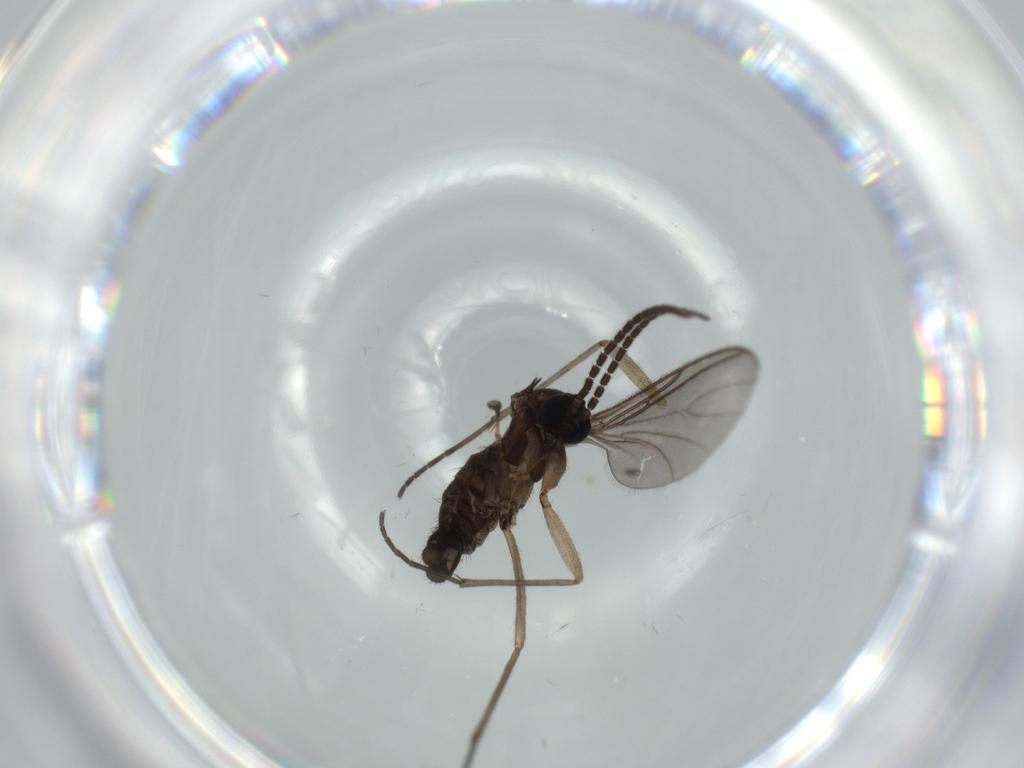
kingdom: Animalia
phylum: Arthropoda
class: Insecta
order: Diptera
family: Sciaridae
